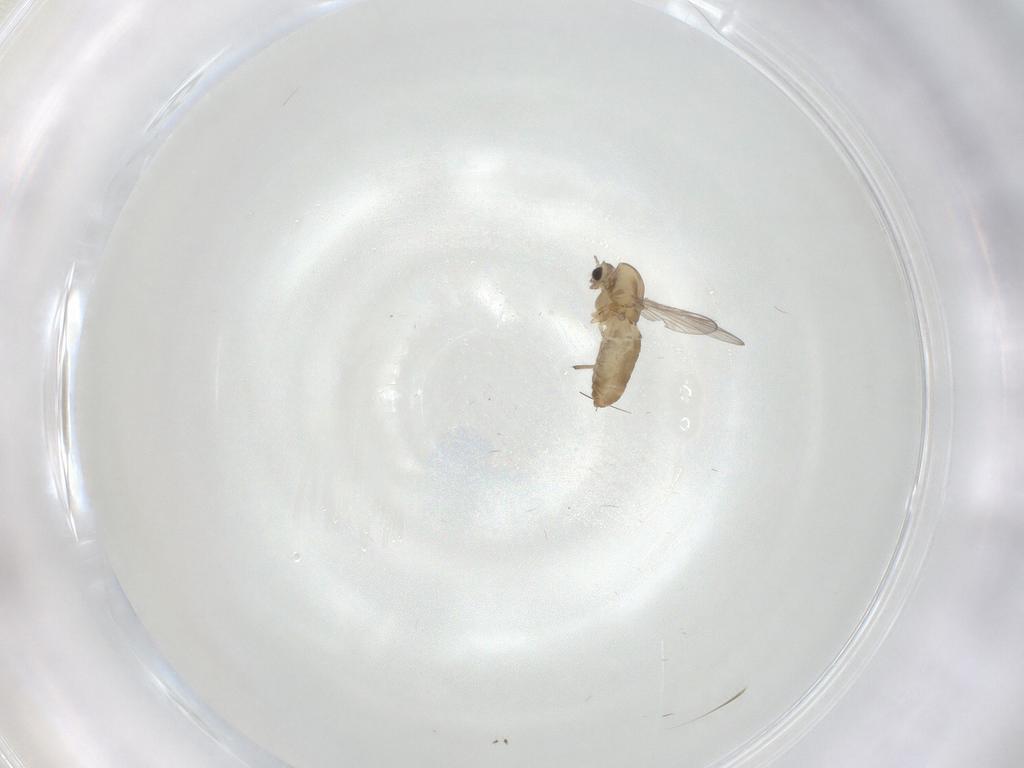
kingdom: Animalia
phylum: Arthropoda
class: Insecta
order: Diptera
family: Chironomidae
